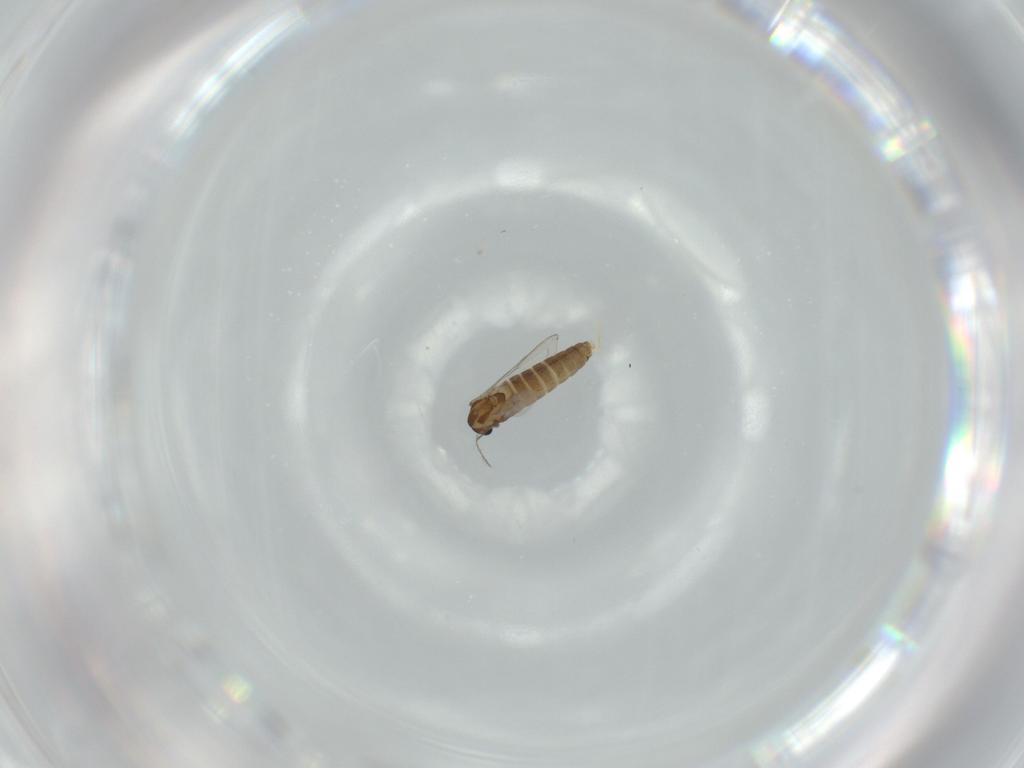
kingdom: Animalia
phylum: Arthropoda
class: Insecta
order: Diptera
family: Chironomidae
